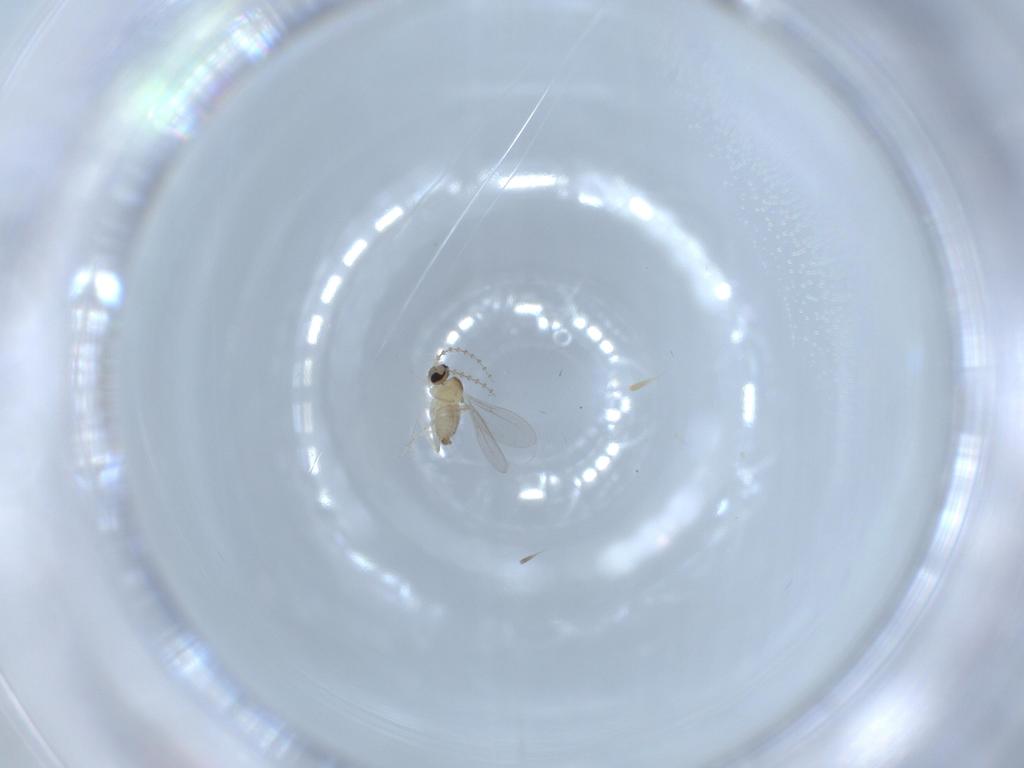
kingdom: Animalia
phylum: Arthropoda
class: Insecta
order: Diptera
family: Cecidomyiidae
